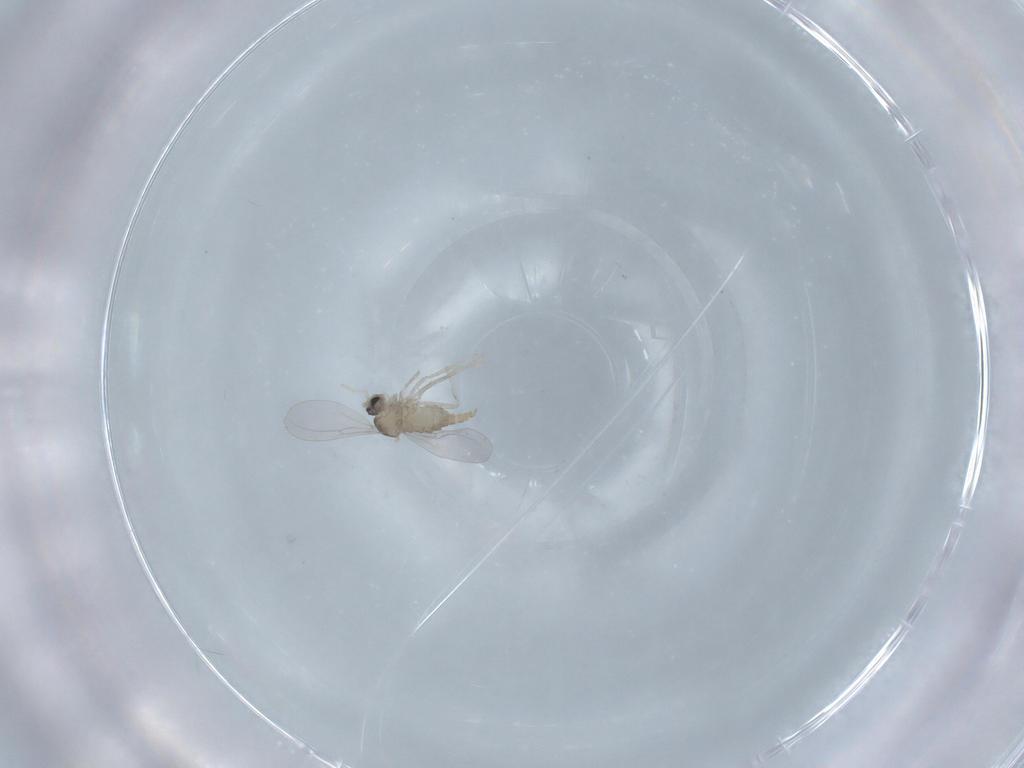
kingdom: Animalia
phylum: Arthropoda
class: Insecta
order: Diptera
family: Cecidomyiidae
